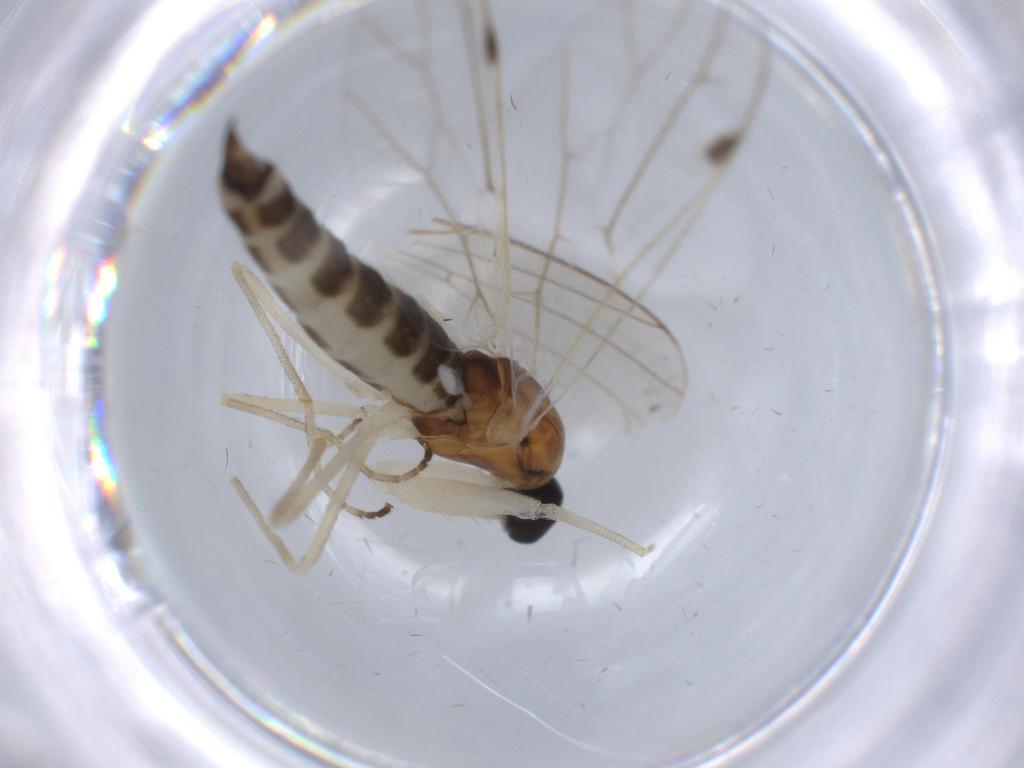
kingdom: Animalia
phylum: Arthropoda
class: Insecta
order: Diptera
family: Empididae
